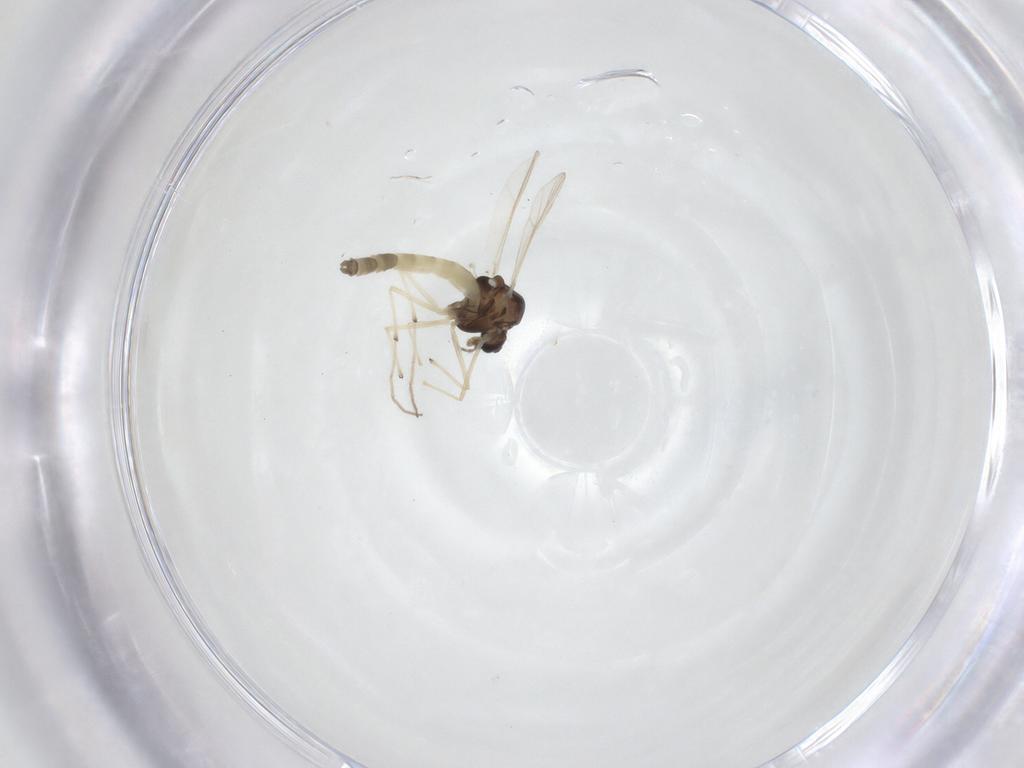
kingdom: Animalia
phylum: Arthropoda
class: Insecta
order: Diptera
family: Chironomidae
